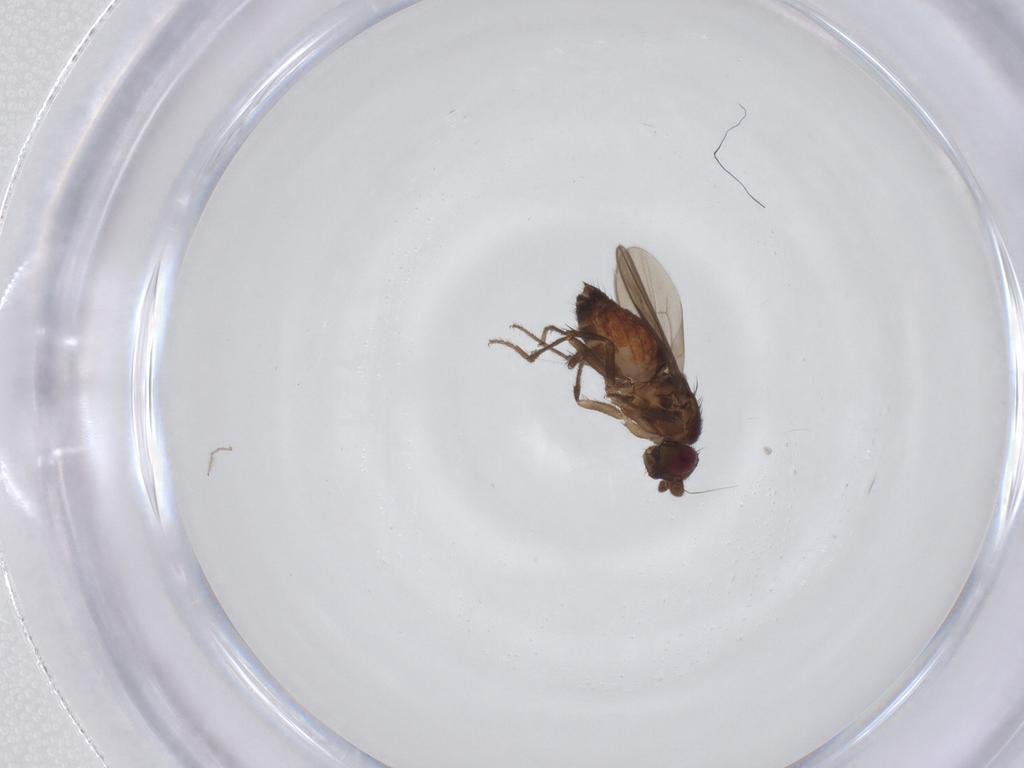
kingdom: Animalia
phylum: Arthropoda
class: Insecta
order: Diptera
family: Sphaeroceridae
